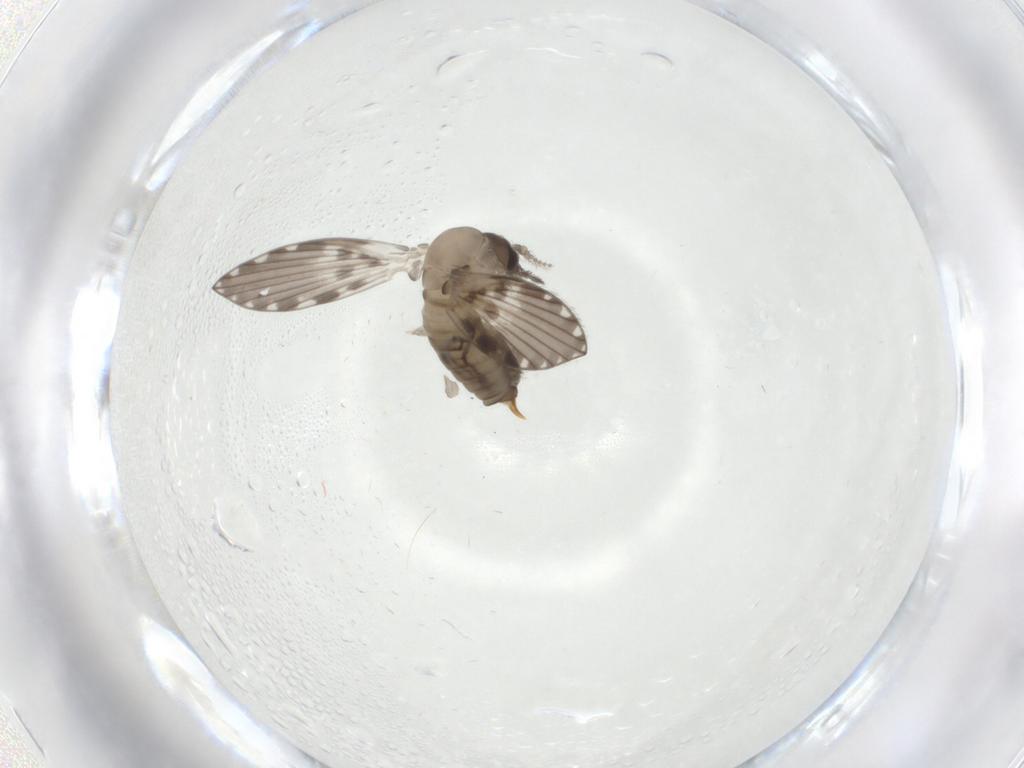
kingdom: Animalia
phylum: Arthropoda
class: Insecta
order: Diptera
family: Psychodidae
